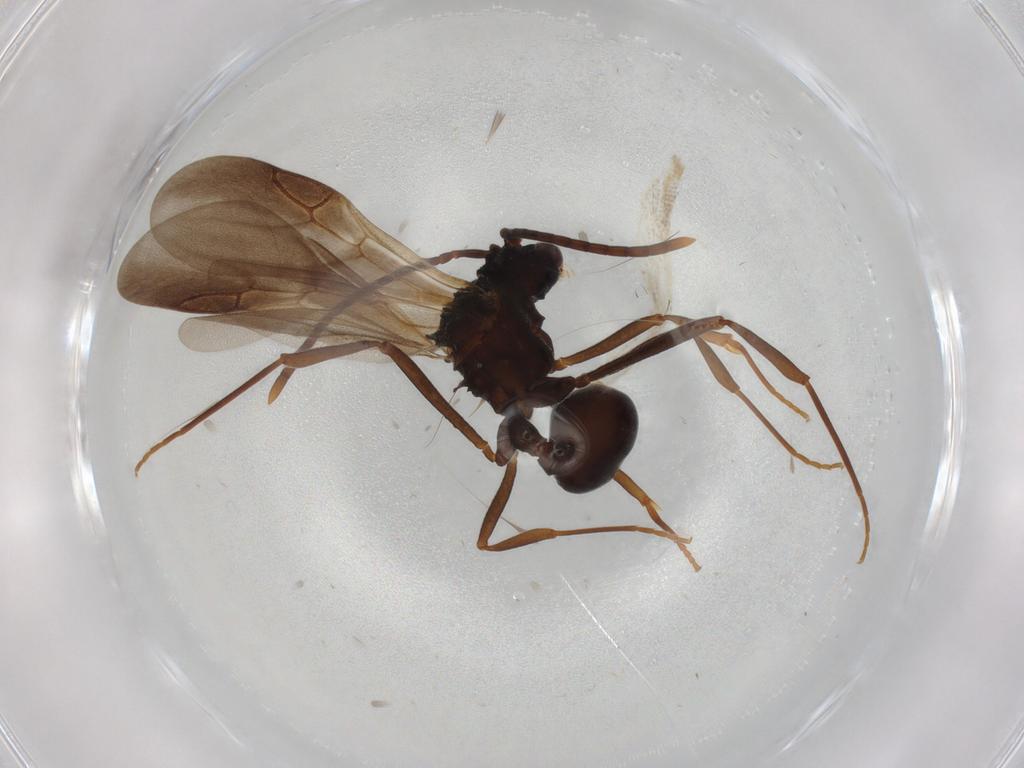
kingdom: Animalia
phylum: Arthropoda
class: Insecta
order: Hymenoptera
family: Formicidae
